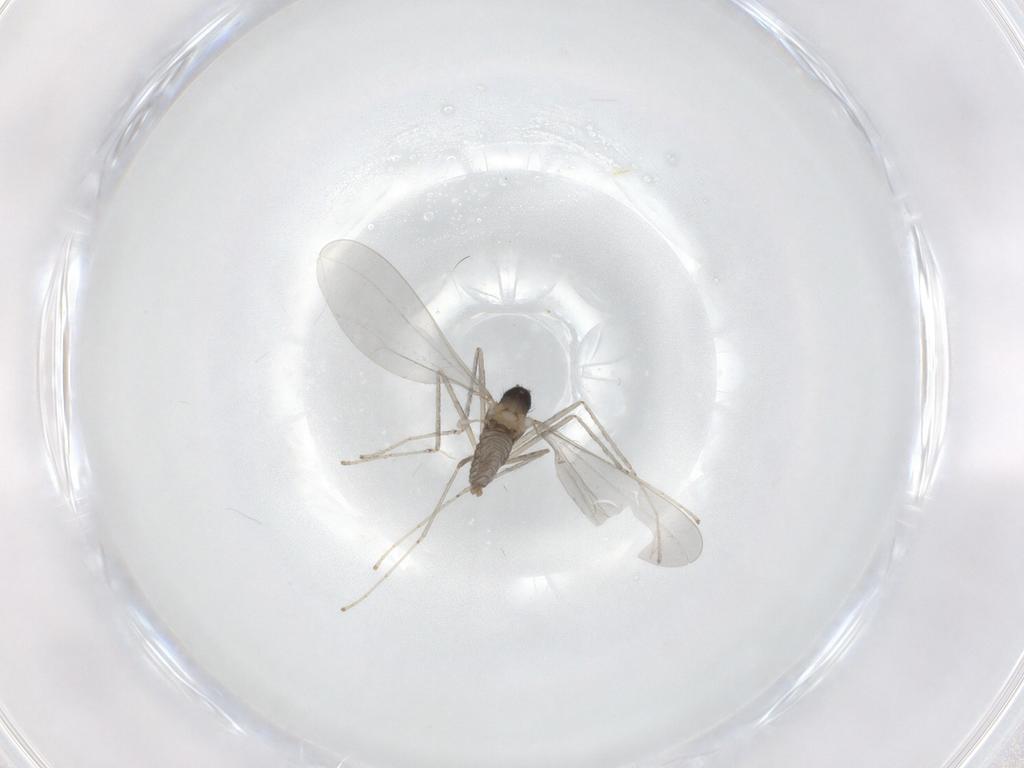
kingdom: Animalia
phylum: Arthropoda
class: Insecta
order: Diptera
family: Cecidomyiidae
